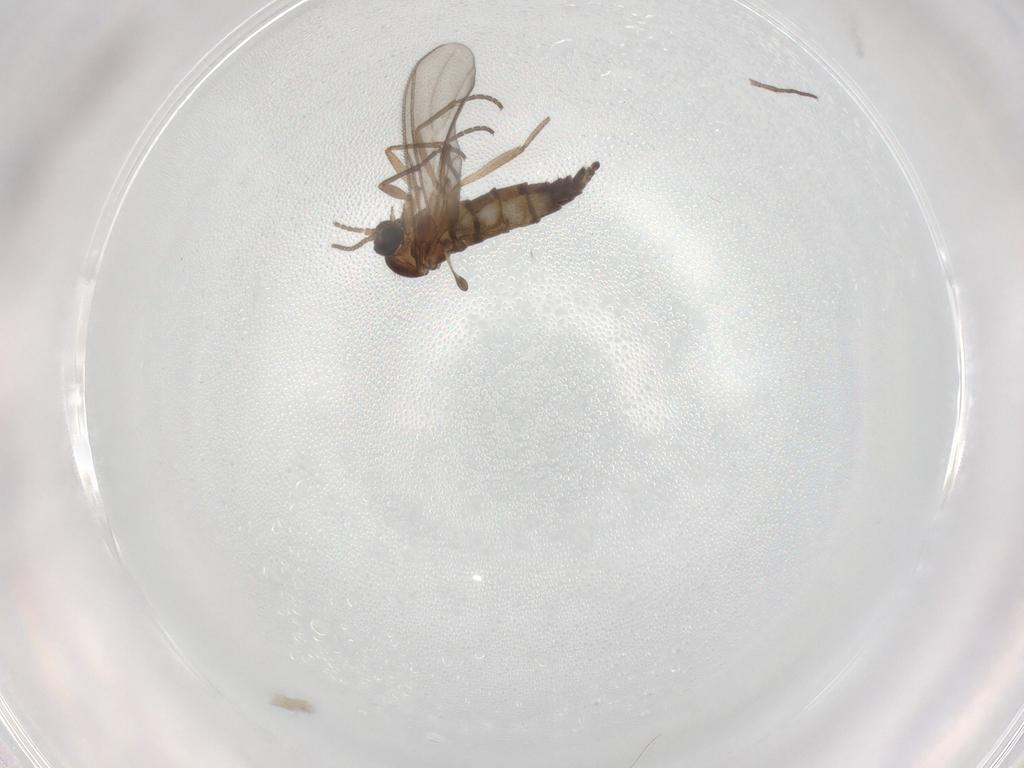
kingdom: Animalia
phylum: Arthropoda
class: Insecta
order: Diptera
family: Sciaridae
